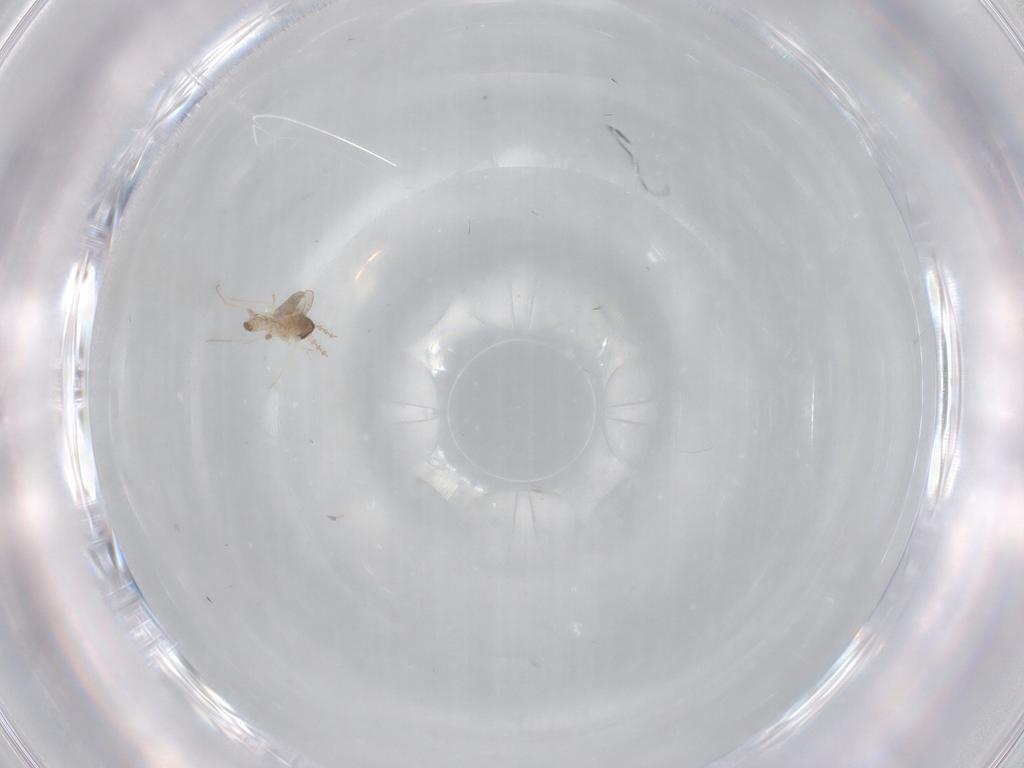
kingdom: Animalia
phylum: Arthropoda
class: Insecta
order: Diptera
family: Cecidomyiidae
